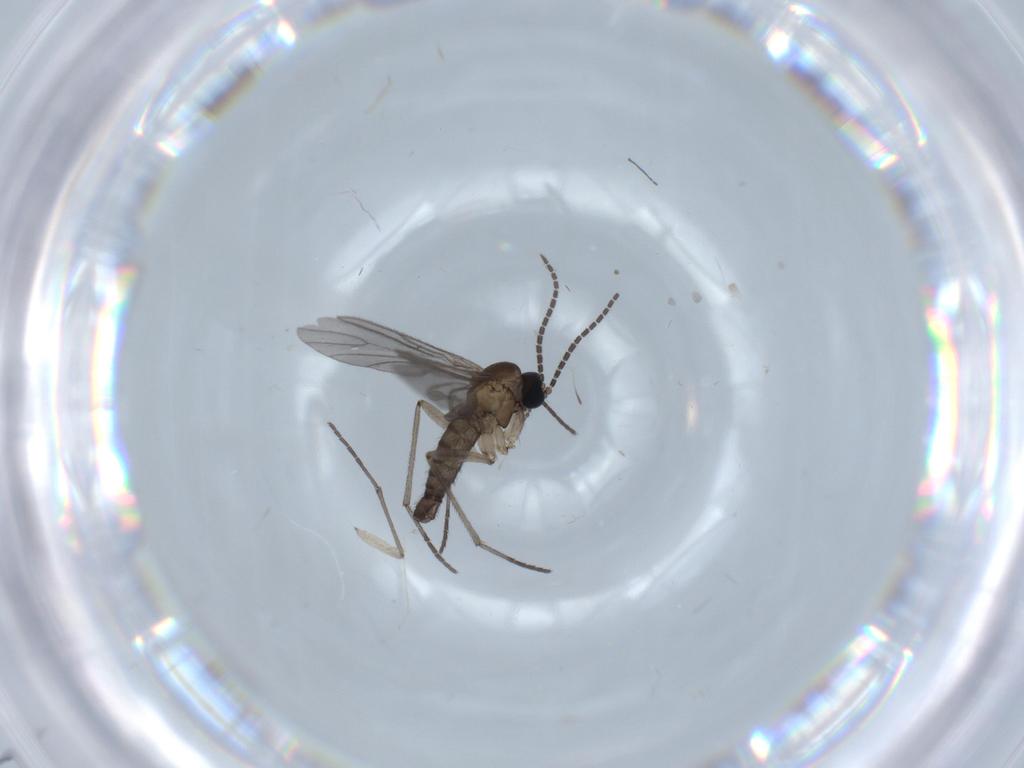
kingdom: Animalia
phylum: Arthropoda
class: Insecta
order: Diptera
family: Sciaridae
